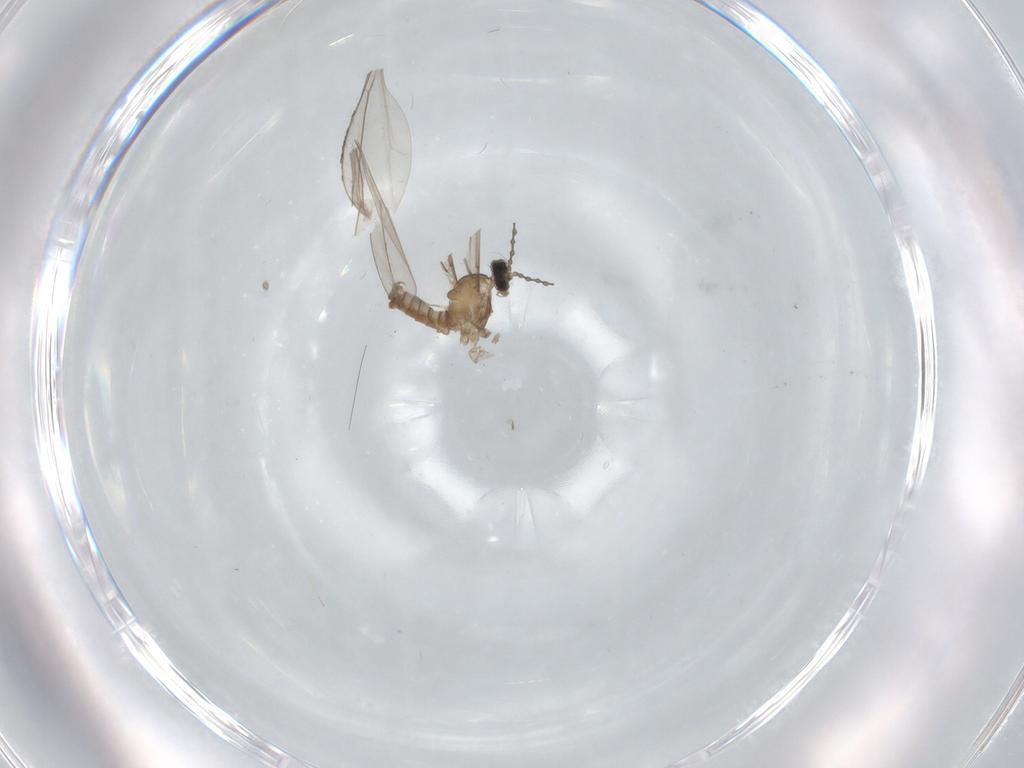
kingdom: Animalia
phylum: Arthropoda
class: Insecta
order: Diptera
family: Cecidomyiidae
